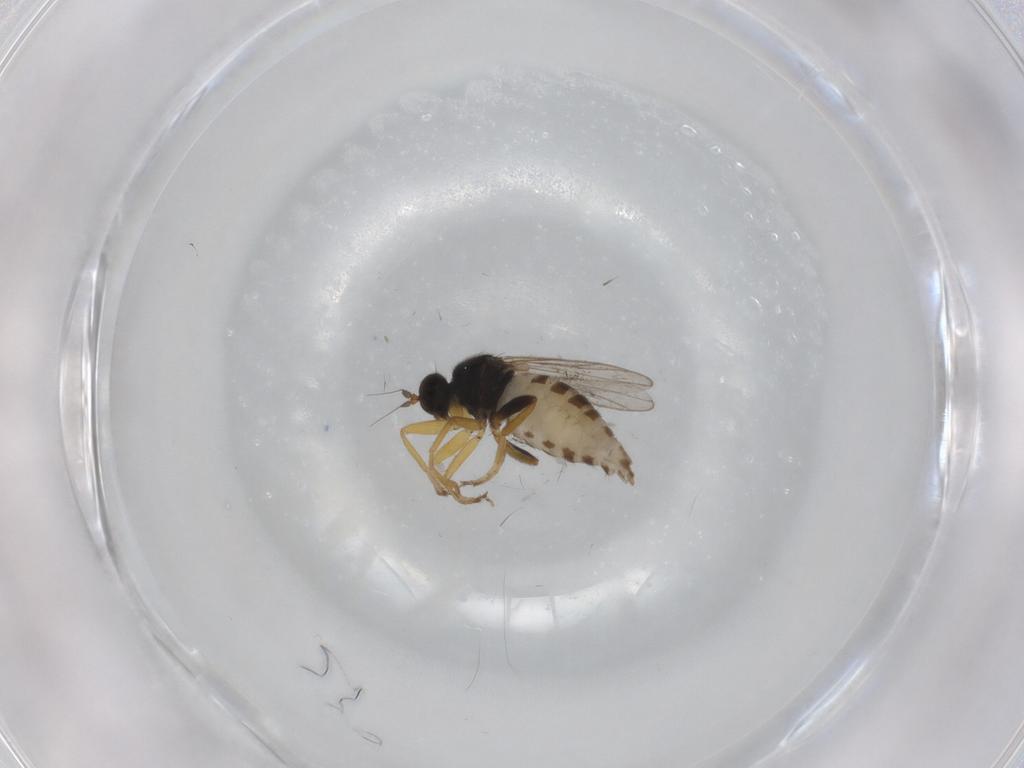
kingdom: Animalia
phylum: Arthropoda
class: Insecta
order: Diptera
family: Hybotidae
